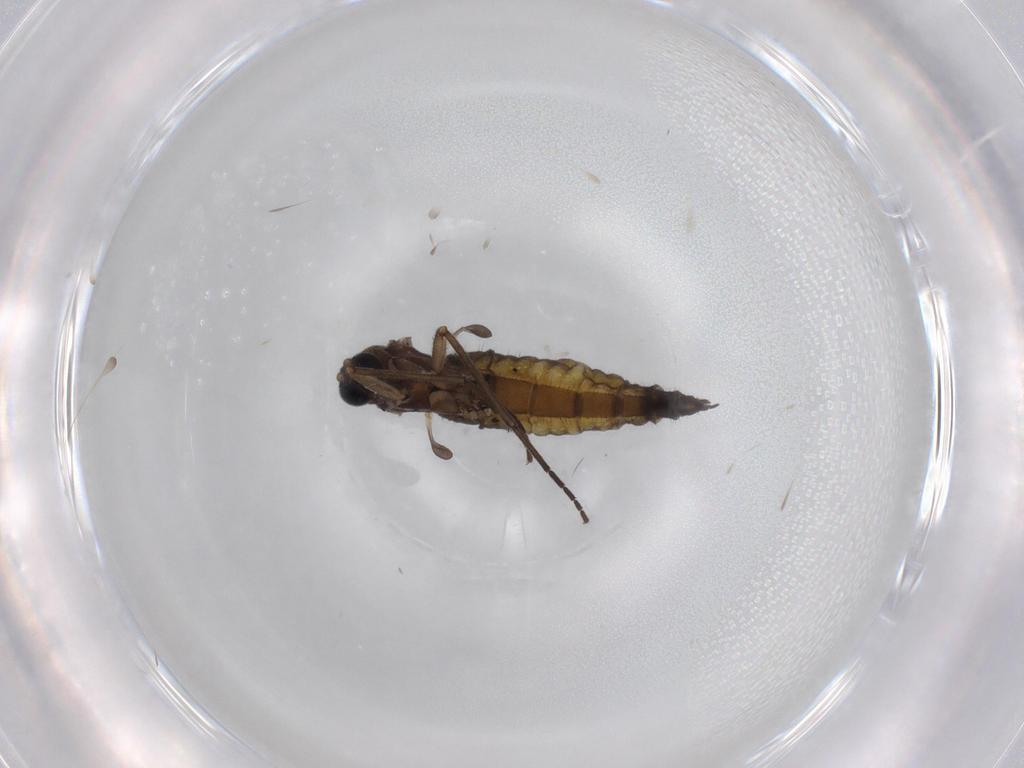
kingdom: Animalia
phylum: Arthropoda
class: Insecta
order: Diptera
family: Sciaridae
